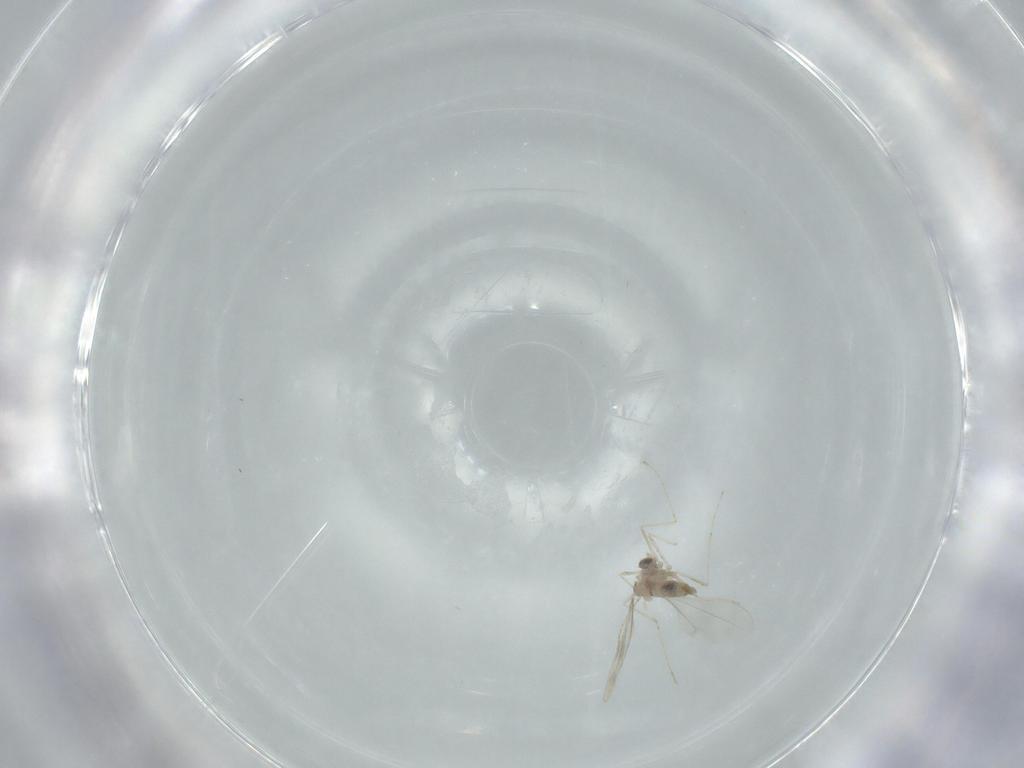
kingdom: Animalia
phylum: Arthropoda
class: Insecta
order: Diptera
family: Cecidomyiidae
